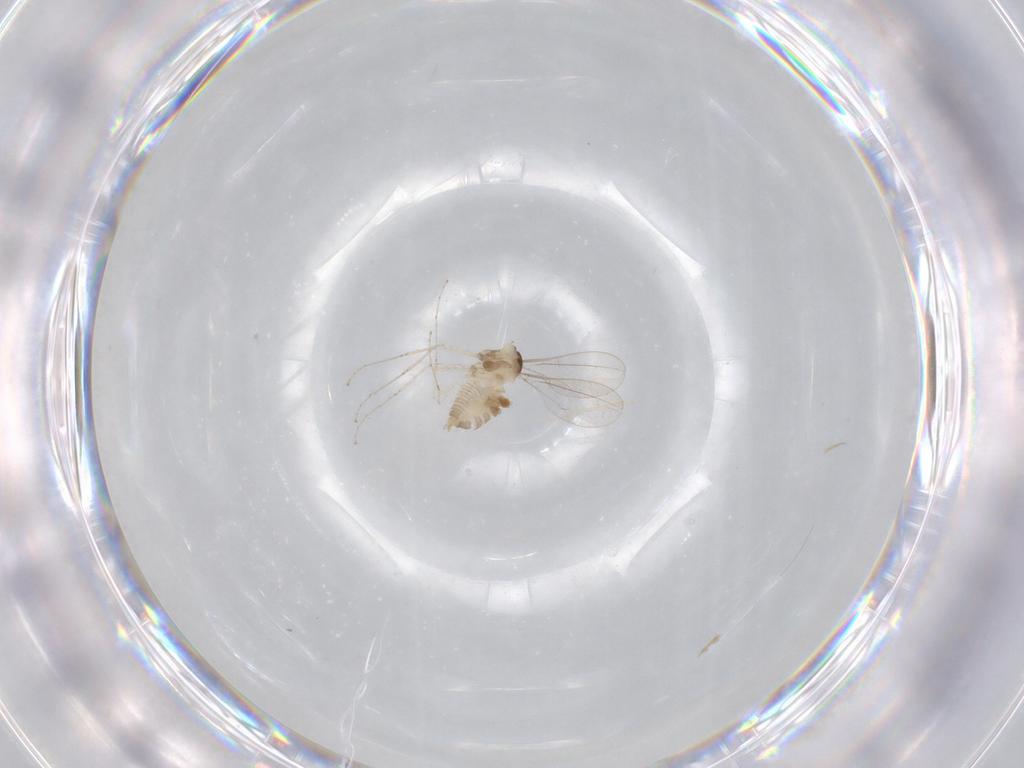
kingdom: Animalia
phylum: Arthropoda
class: Insecta
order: Diptera
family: Cecidomyiidae
